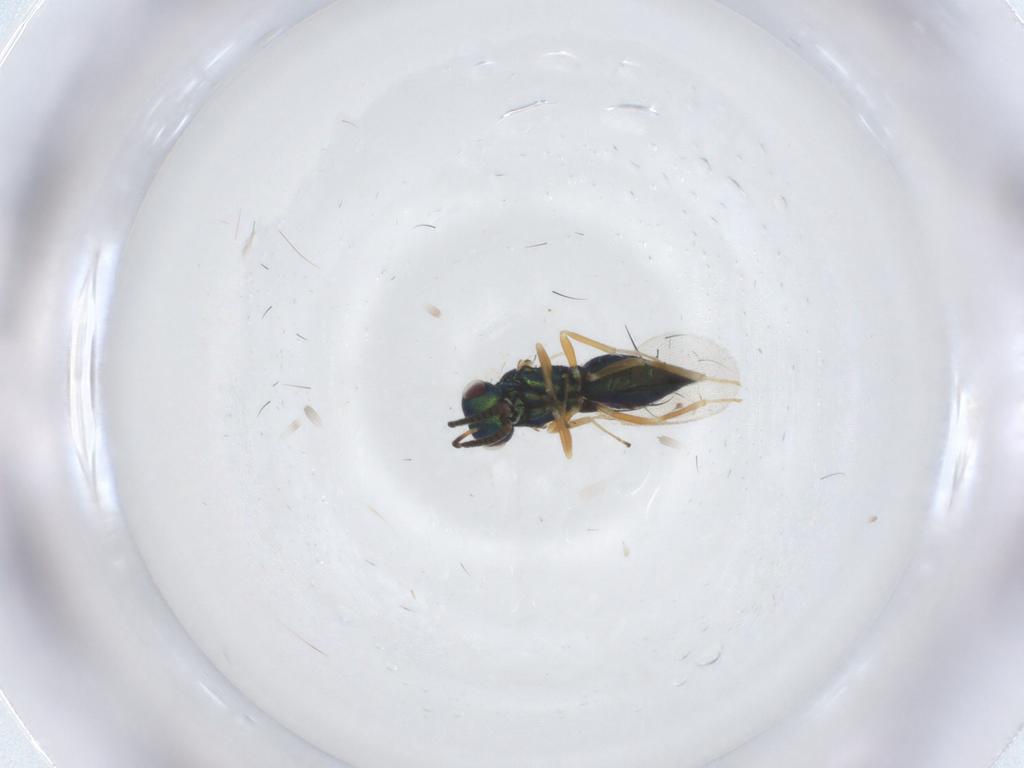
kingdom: Animalia
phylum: Arthropoda
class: Insecta
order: Hymenoptera
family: Pteromalidae
